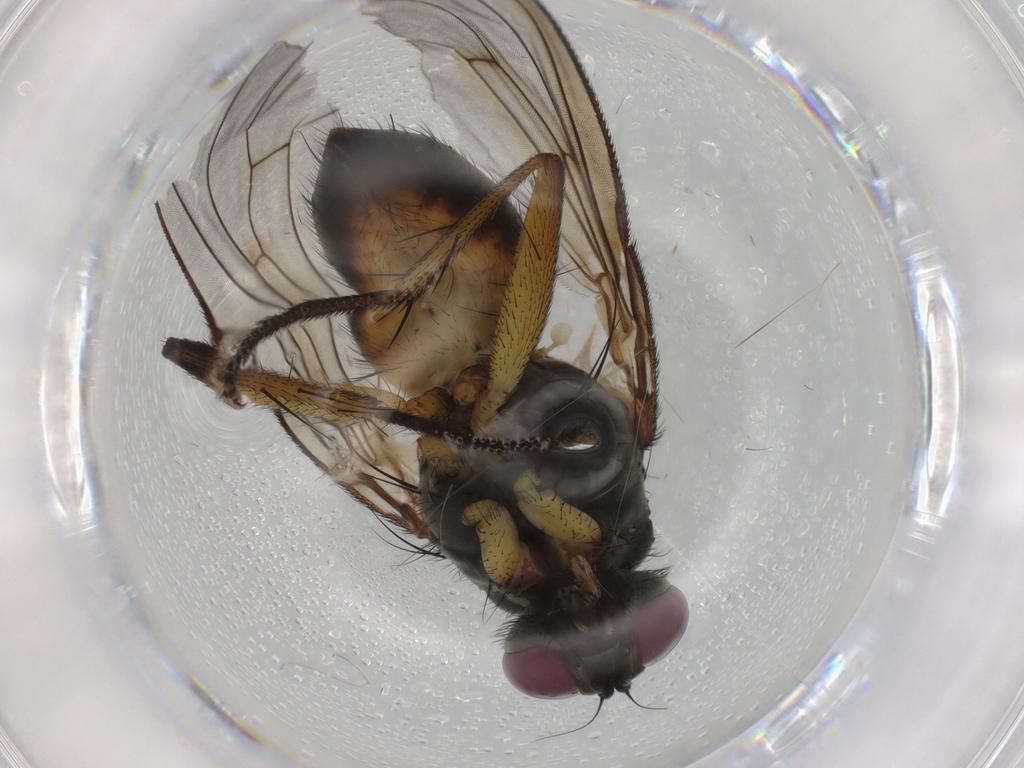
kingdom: Animalia
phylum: Arthropoda
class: Insecta
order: Diptera
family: Muscidae
